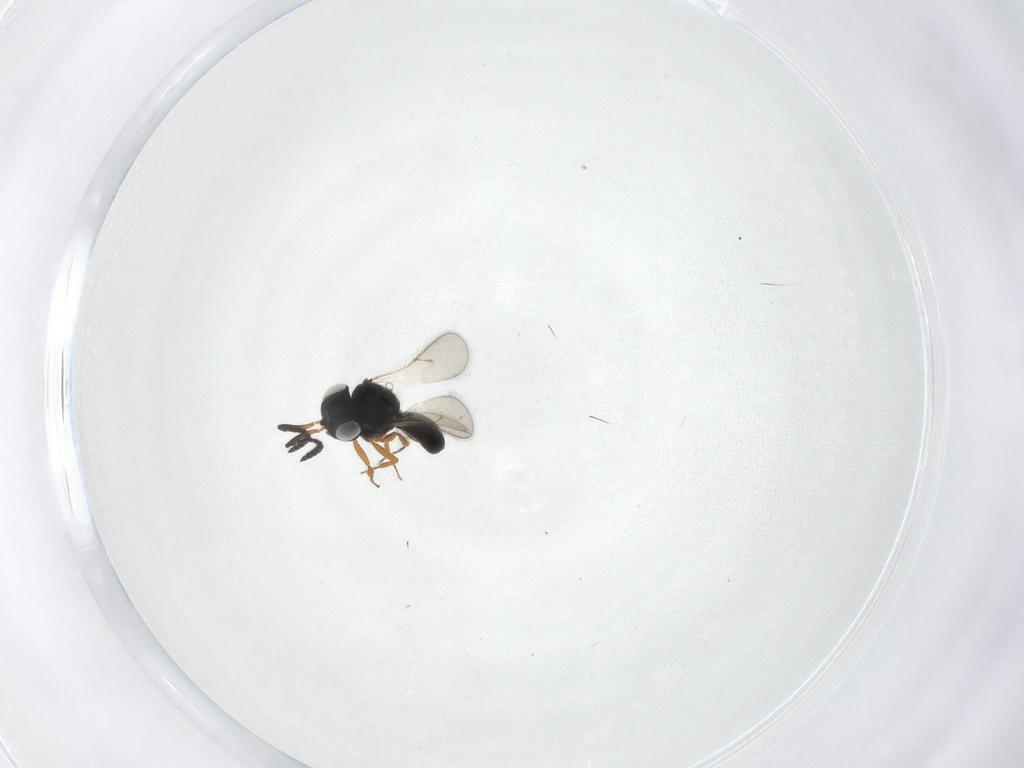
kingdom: Animalia
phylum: Arthropoda
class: Insecta
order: Hymenoptera
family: Scelionidae
